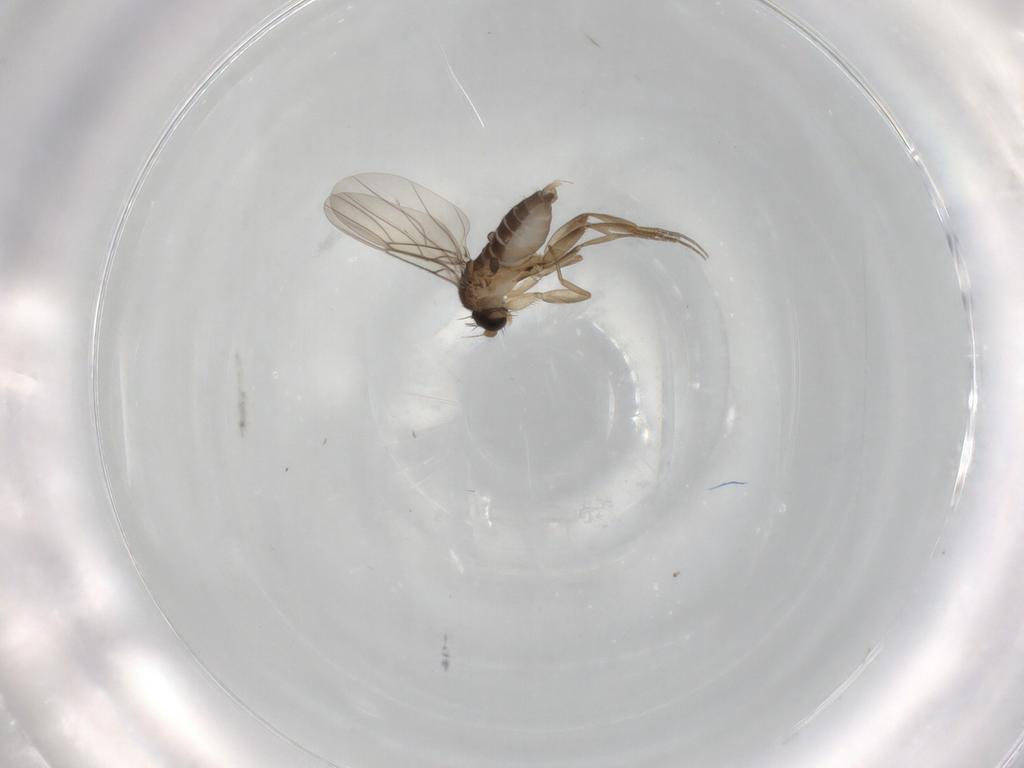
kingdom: Animalia
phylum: Arthropoda
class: Insecta
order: Diptera
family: Phoridae
